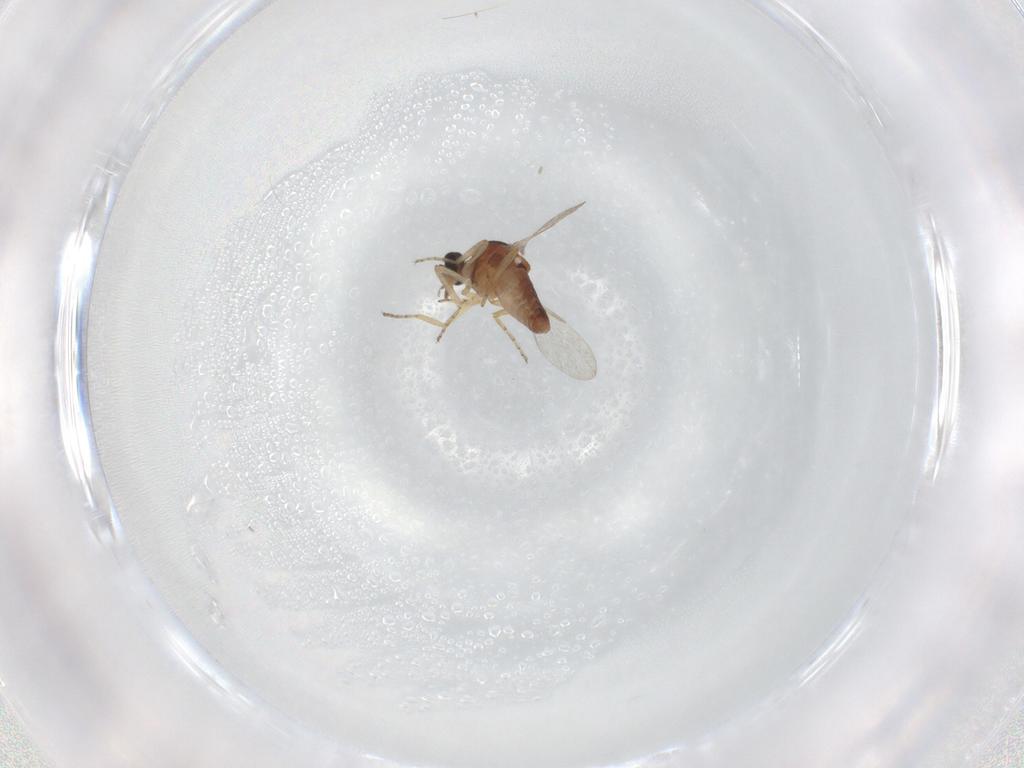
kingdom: Animalia
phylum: Arthropoda
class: Insecta
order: Diptera
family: Ceratopogonidae
